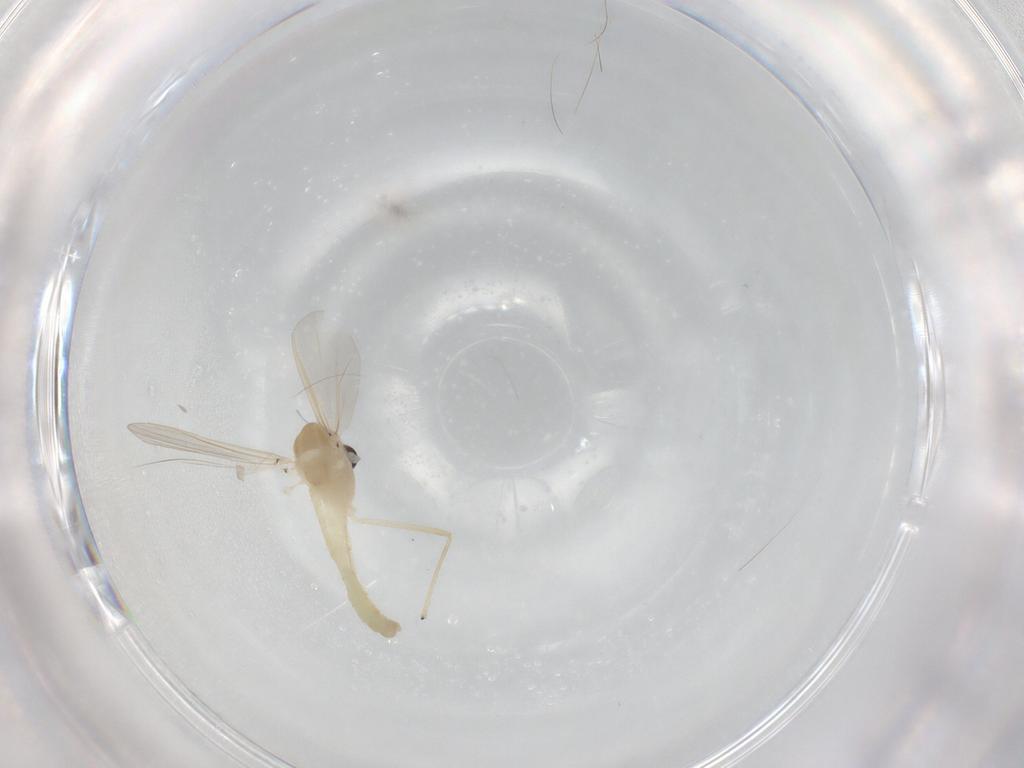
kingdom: Animalia
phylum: Arthropoda
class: Insecta
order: Diptera
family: Chironomidae
